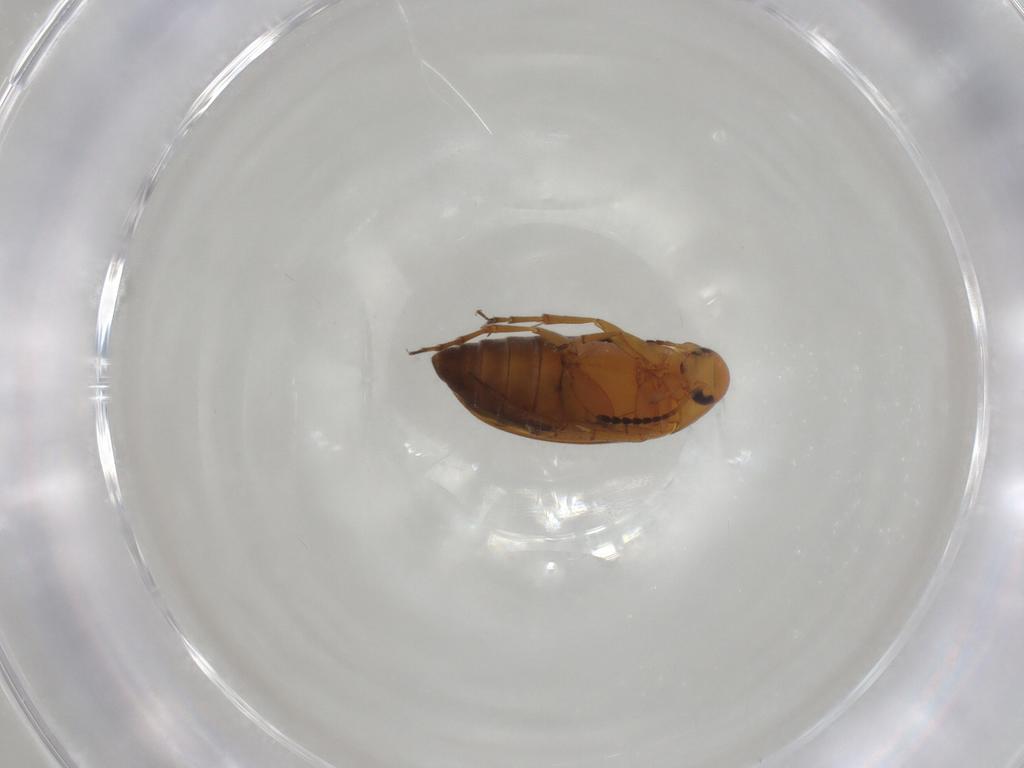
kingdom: Animalia
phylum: Arthropoda
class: Insecta
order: Coleoptera
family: Scraptiidae
